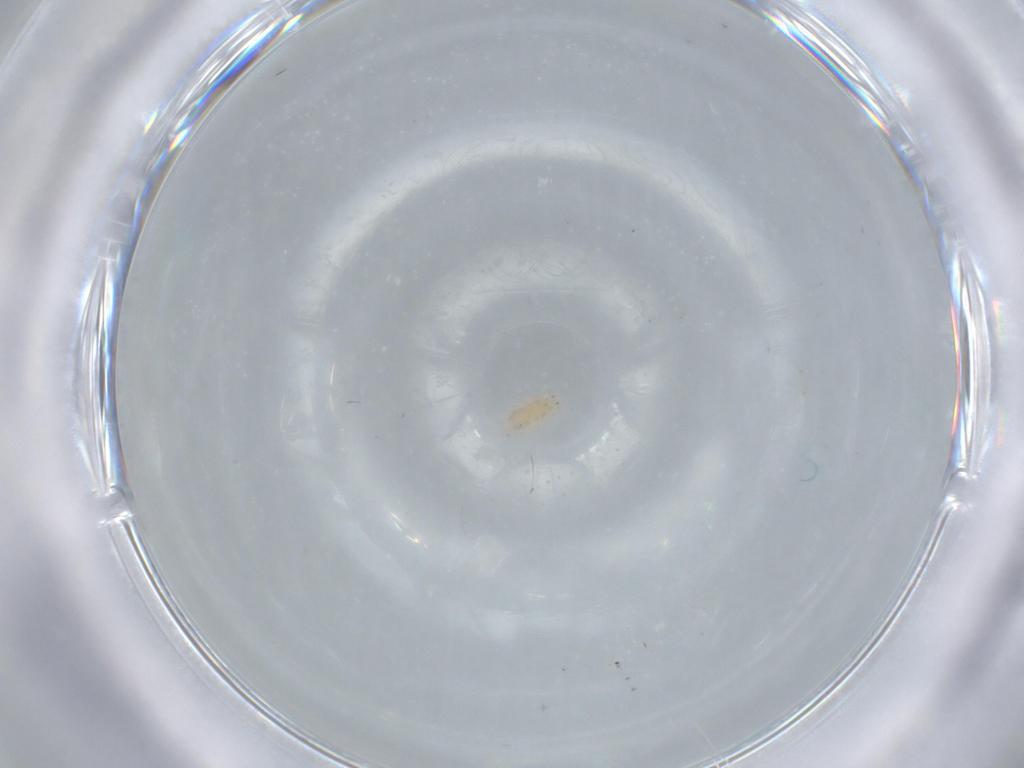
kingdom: Animalia
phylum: Arthropoda
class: Insecta
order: Thysanoptera
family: Thripidae
